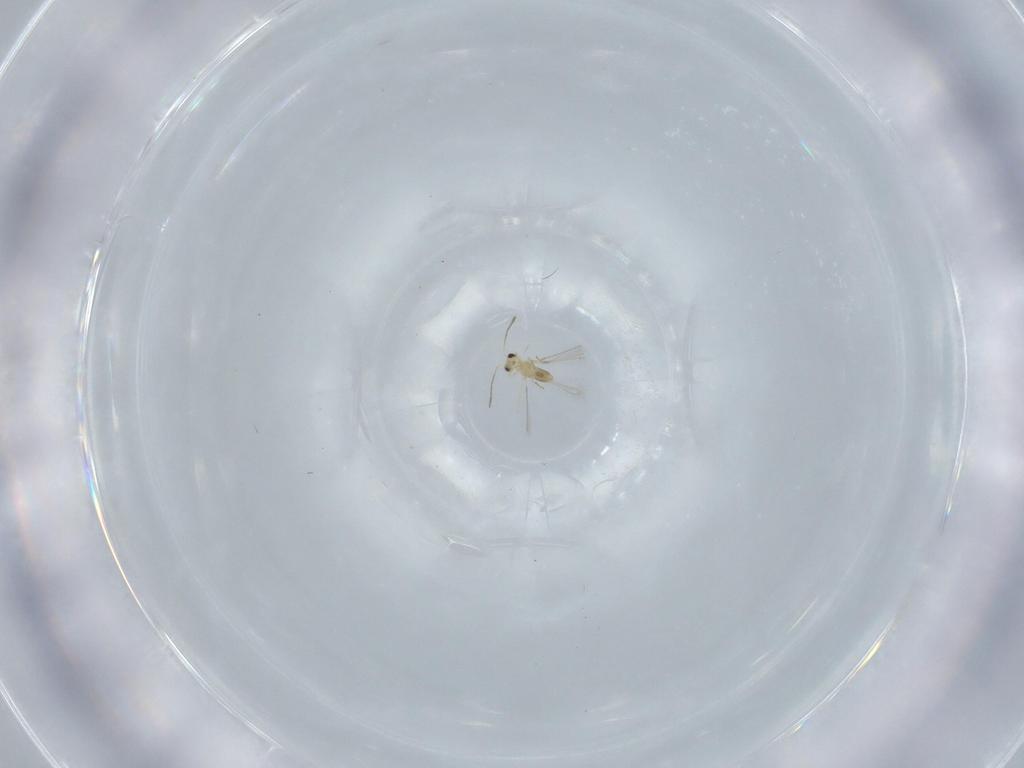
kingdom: Animalia
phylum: Arthropoda
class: Insecta
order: Hymenoptera
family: Mymaridae
